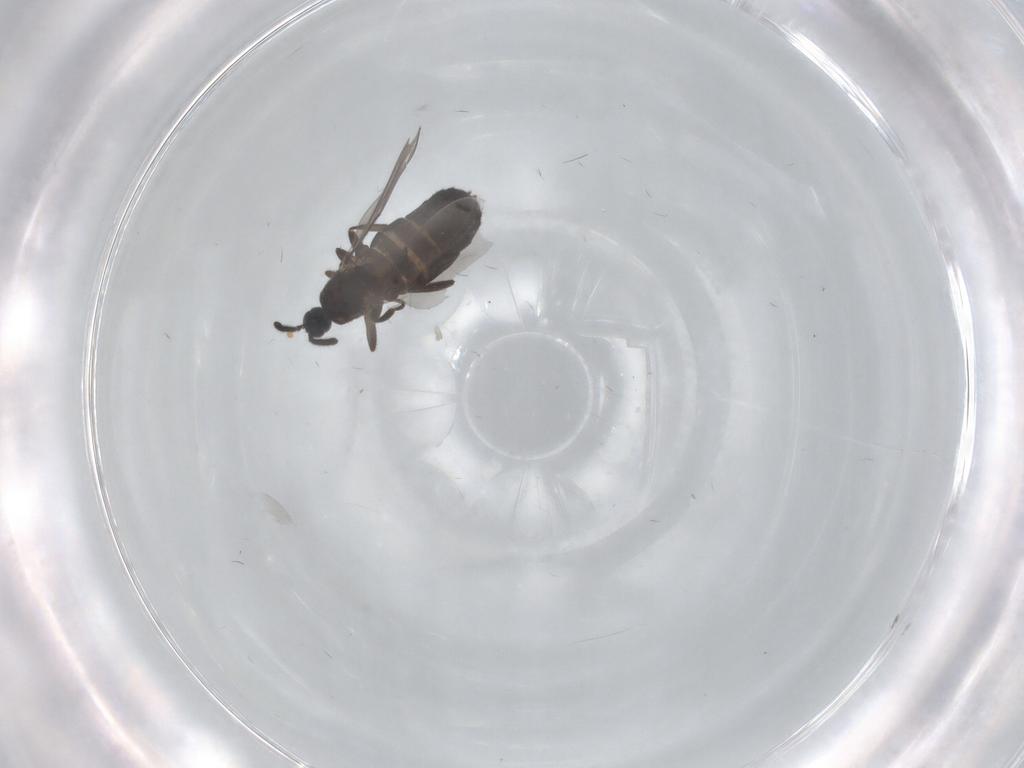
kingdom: Animalia
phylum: Arthropoda
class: Insecta
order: Diptera
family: Scatopsidae
